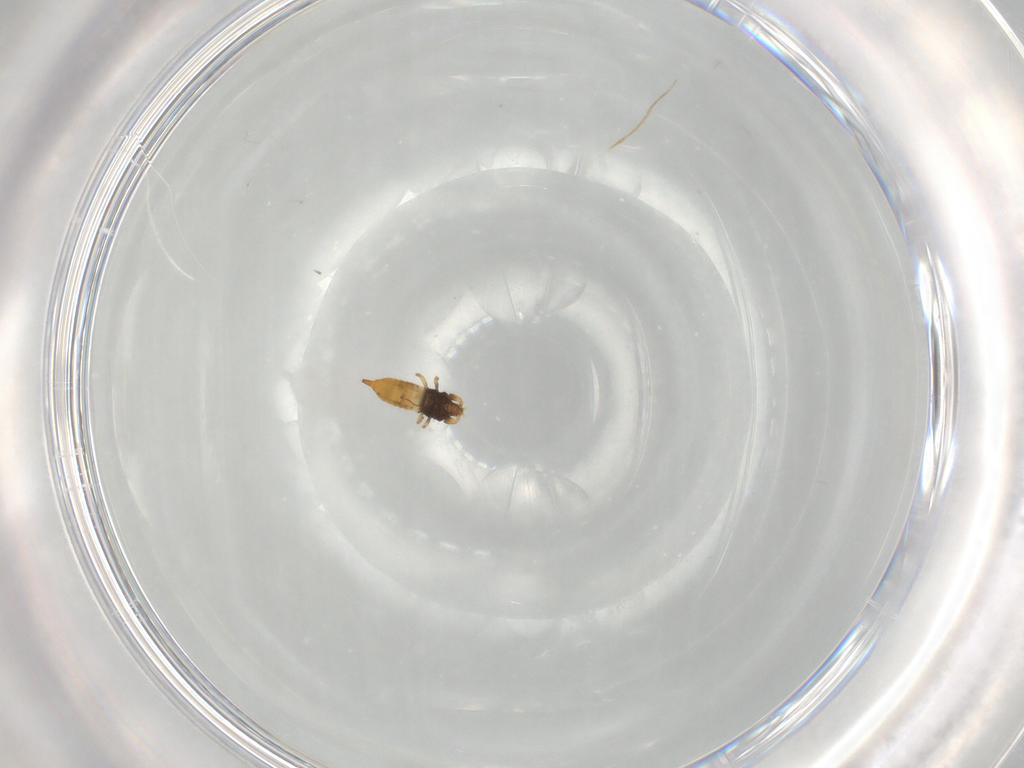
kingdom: Animalia
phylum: Arthropoda
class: Insecta
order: Thysanoptera
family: Phlaeothripidae
